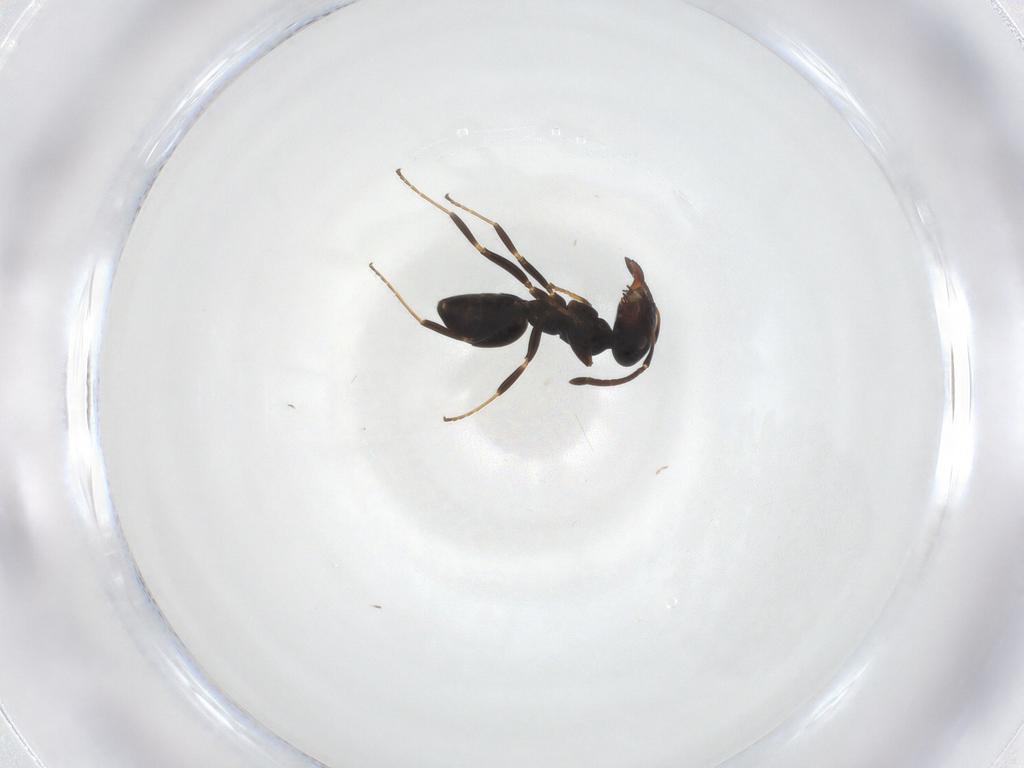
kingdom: Animalia
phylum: Arthropoda
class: Insecta
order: Hymenoptera
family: Formicidae
